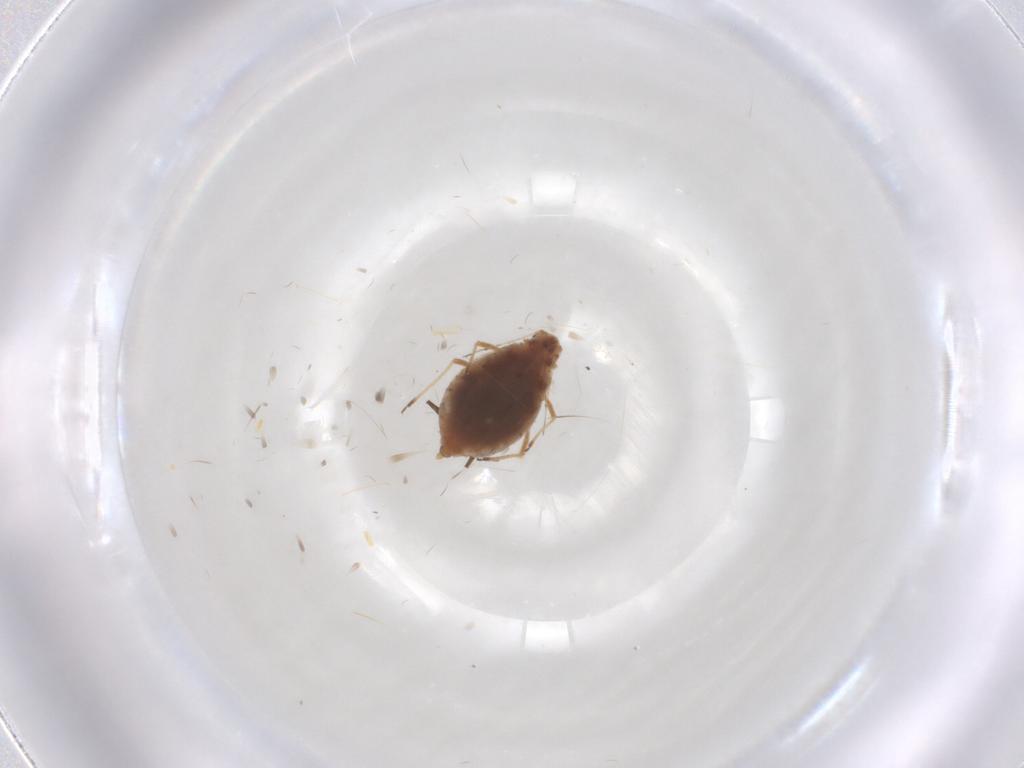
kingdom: Animalia
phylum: Arthropoda
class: Insecta
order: Hemiptera
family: Aphididae
